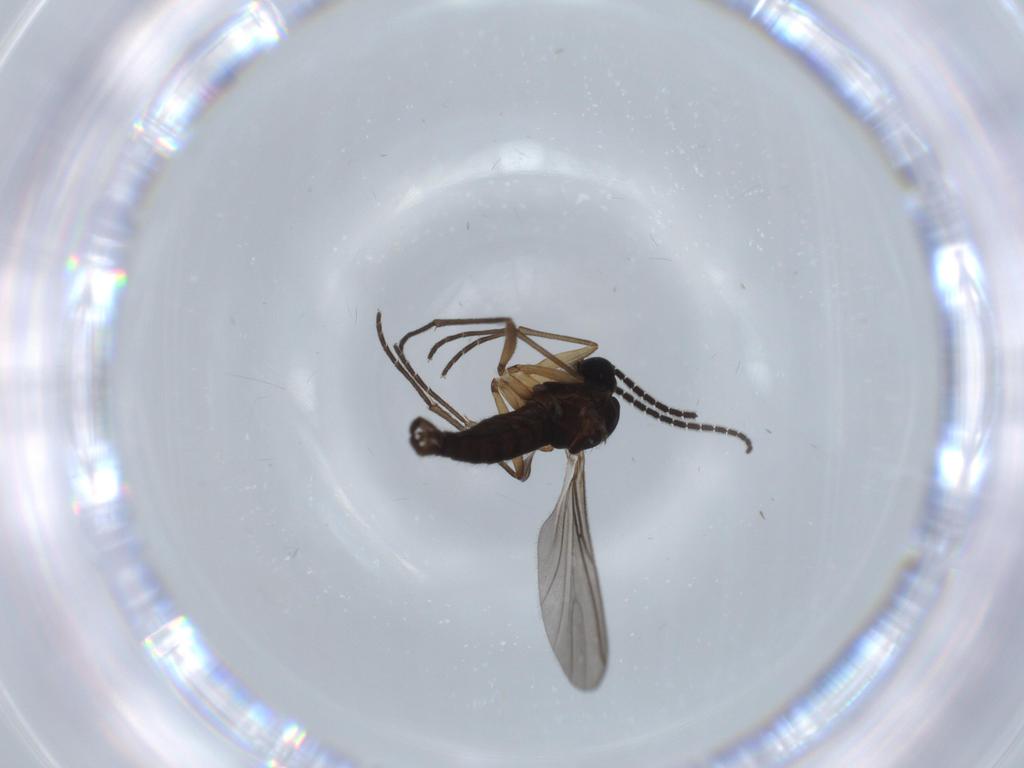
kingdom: Animalia
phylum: Arthropoda
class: Insecta
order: Diptera
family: Sciaridae
